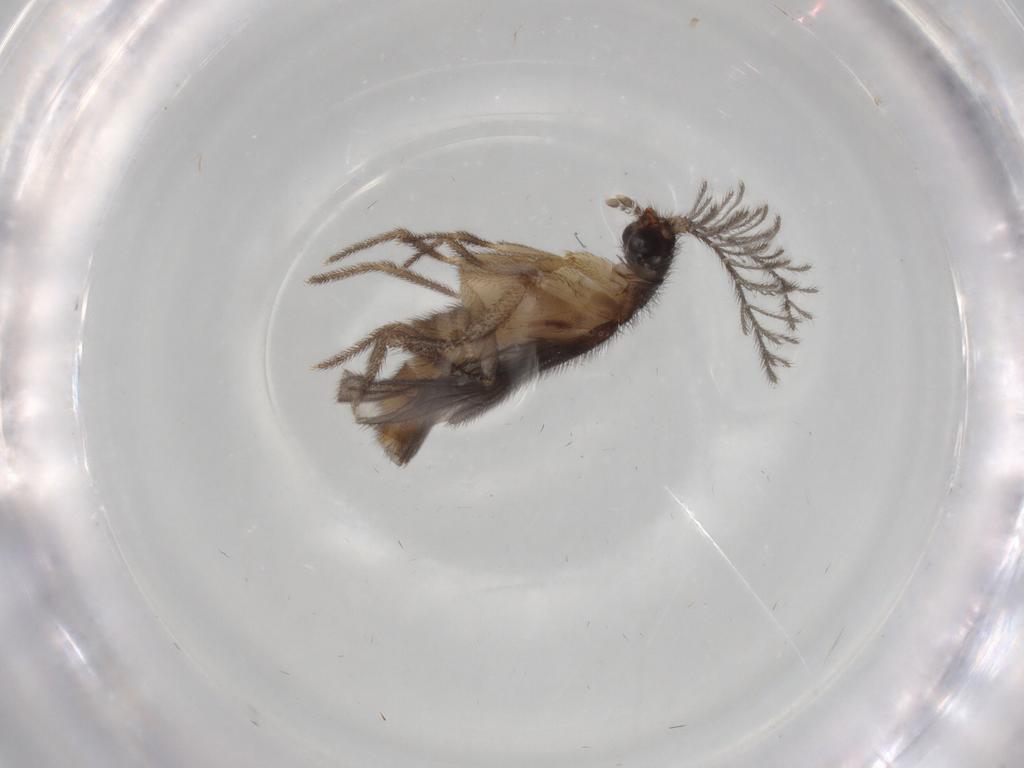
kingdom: Animalia
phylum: Arthropoda
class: Insecta
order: Coleoptera
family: Phengodidae
